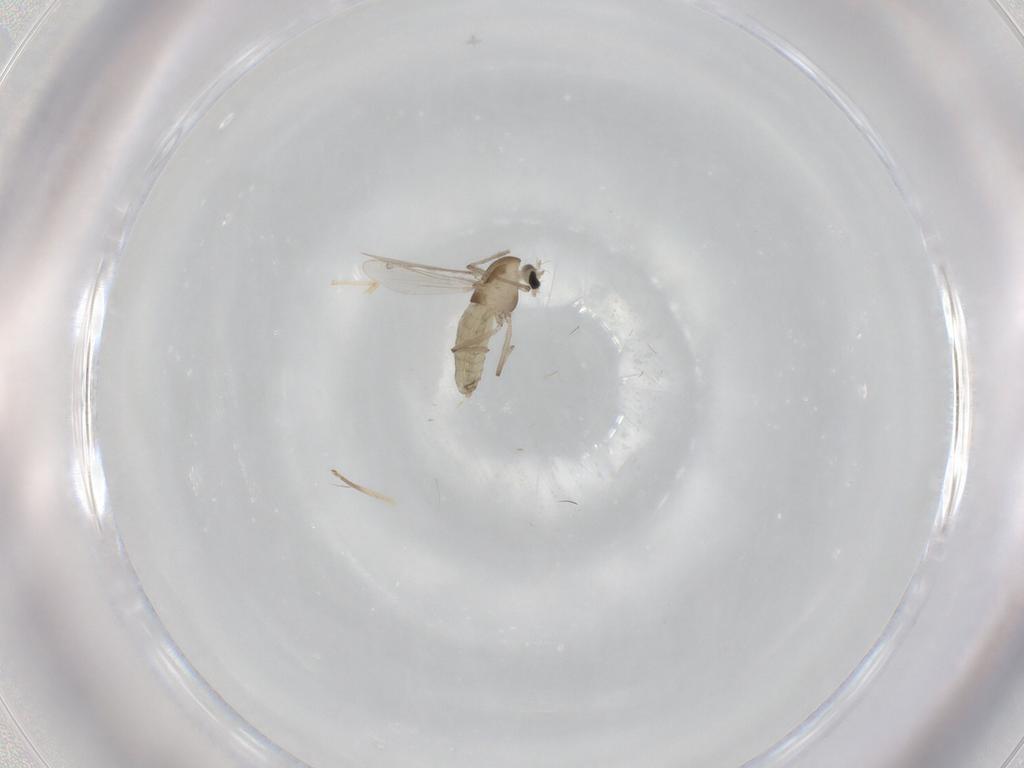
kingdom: Animalia
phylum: Arthropoda
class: Insecta
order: Diptera
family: Chironomidae
